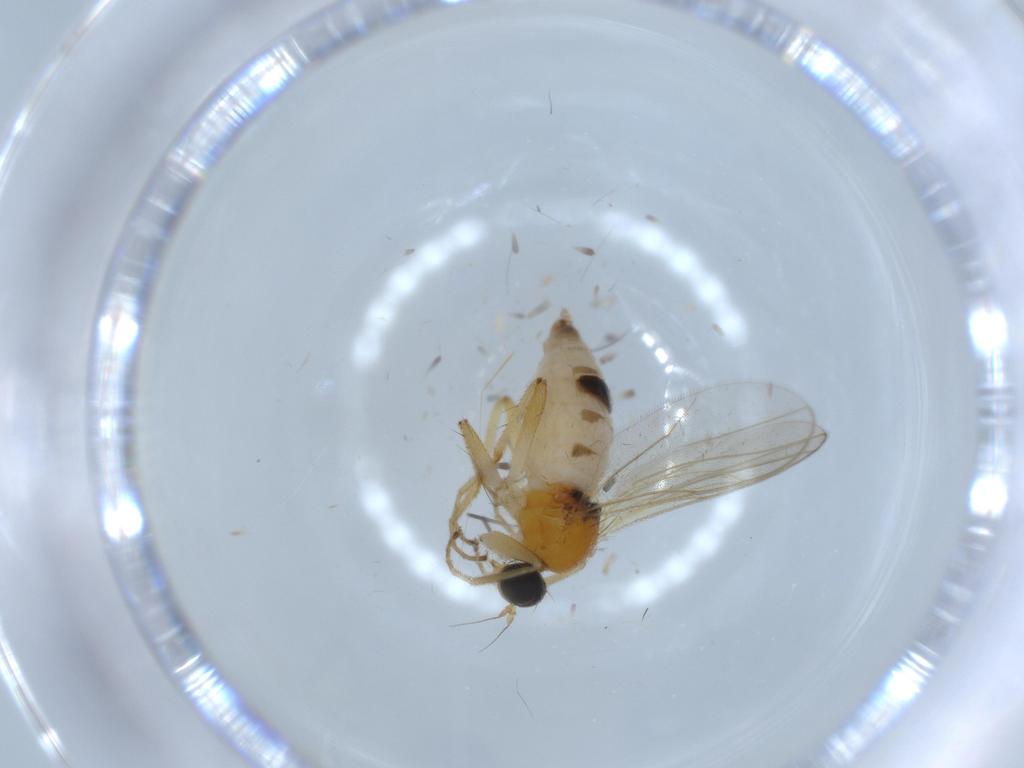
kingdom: Animalia
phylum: Arthropoda
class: Insecta
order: Diptera
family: Hybotidae
